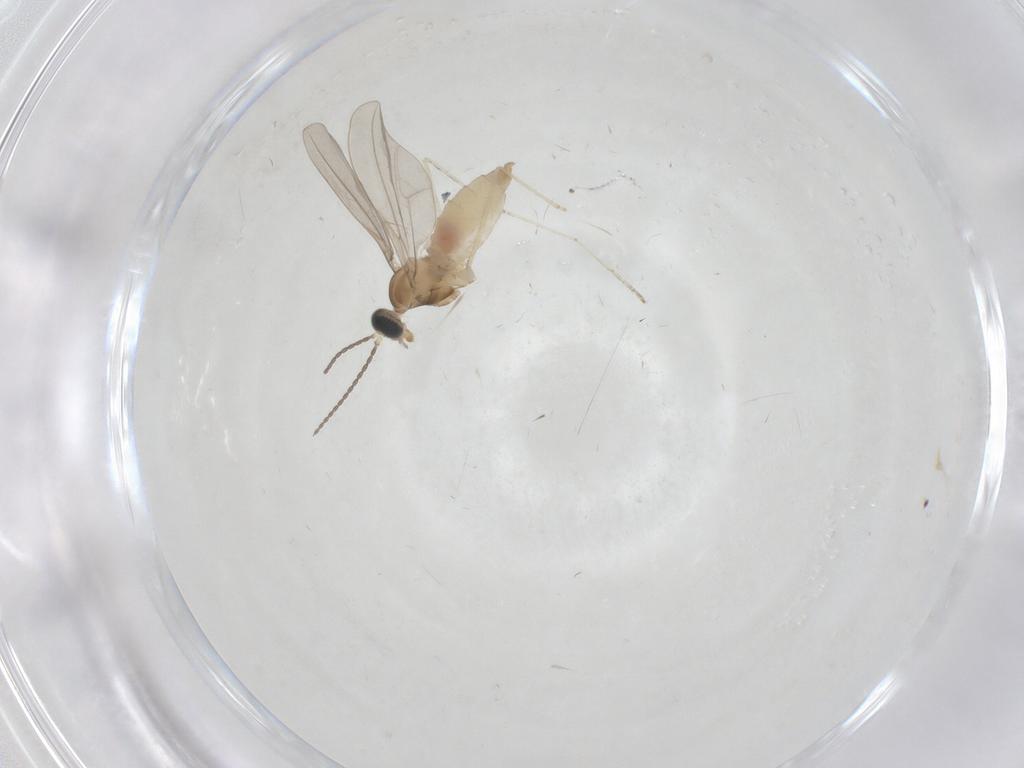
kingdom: Animalia
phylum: Arthropoda
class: Insecta
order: Diptera
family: Cecidomyiidae
